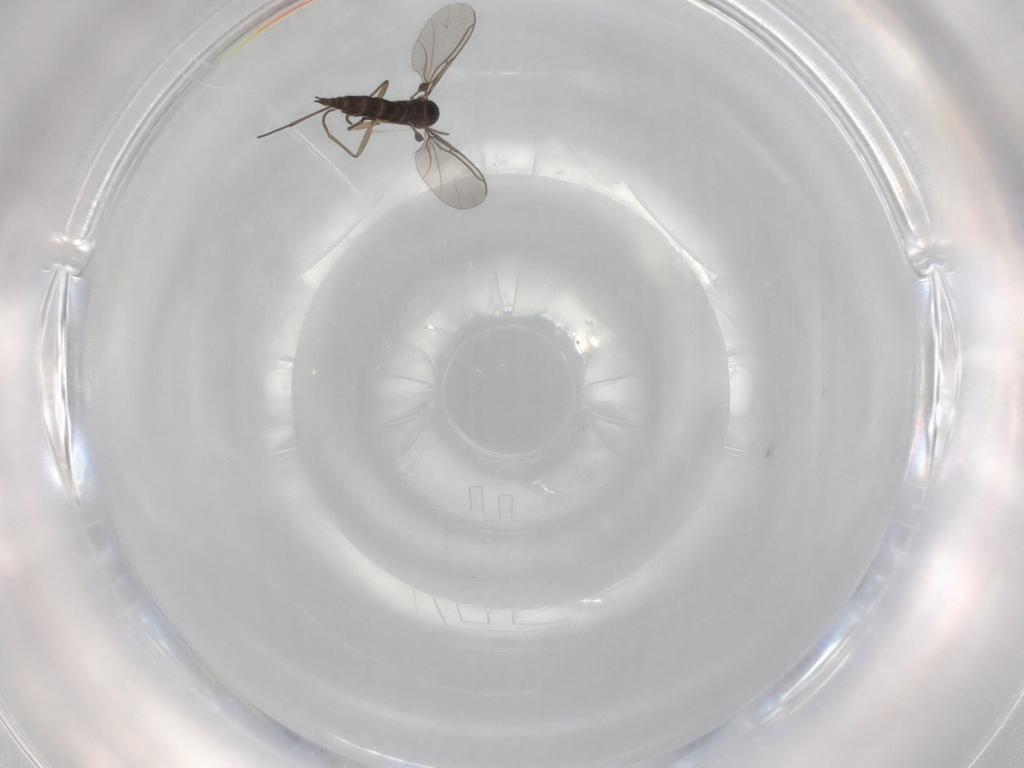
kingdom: Animalia
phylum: Arthropoda
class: Insecta
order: Diptera
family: Sciaridae
